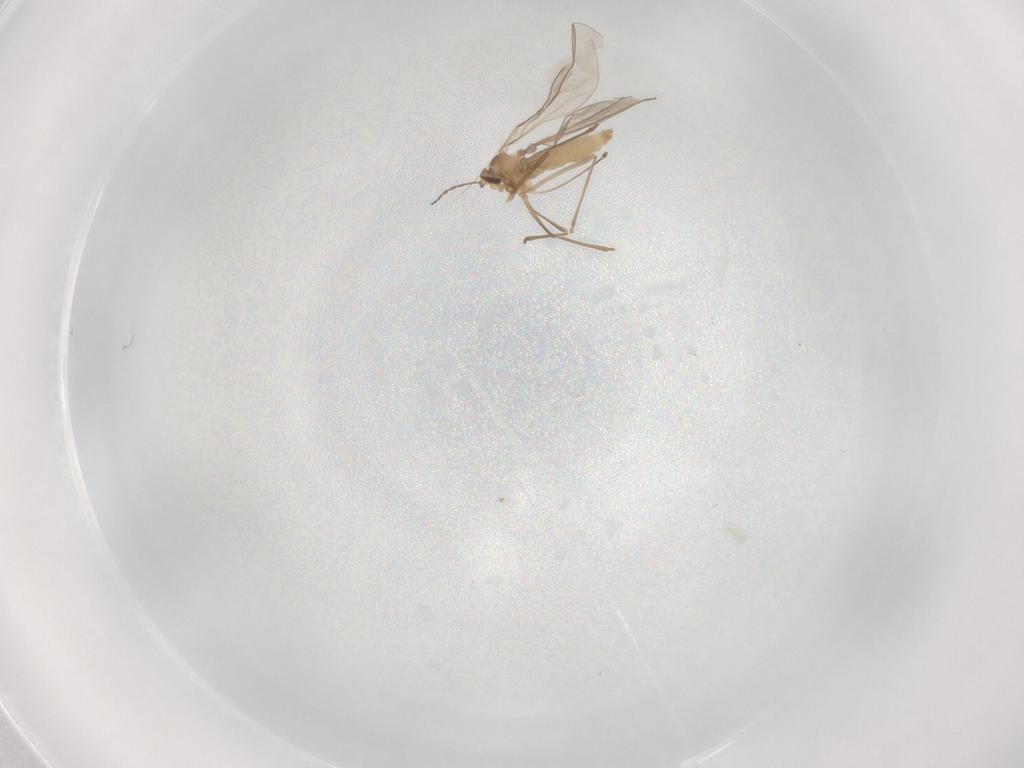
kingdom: Animalia
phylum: Arthropoda
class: Insecta
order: Diptera
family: Cecidomyiidae
